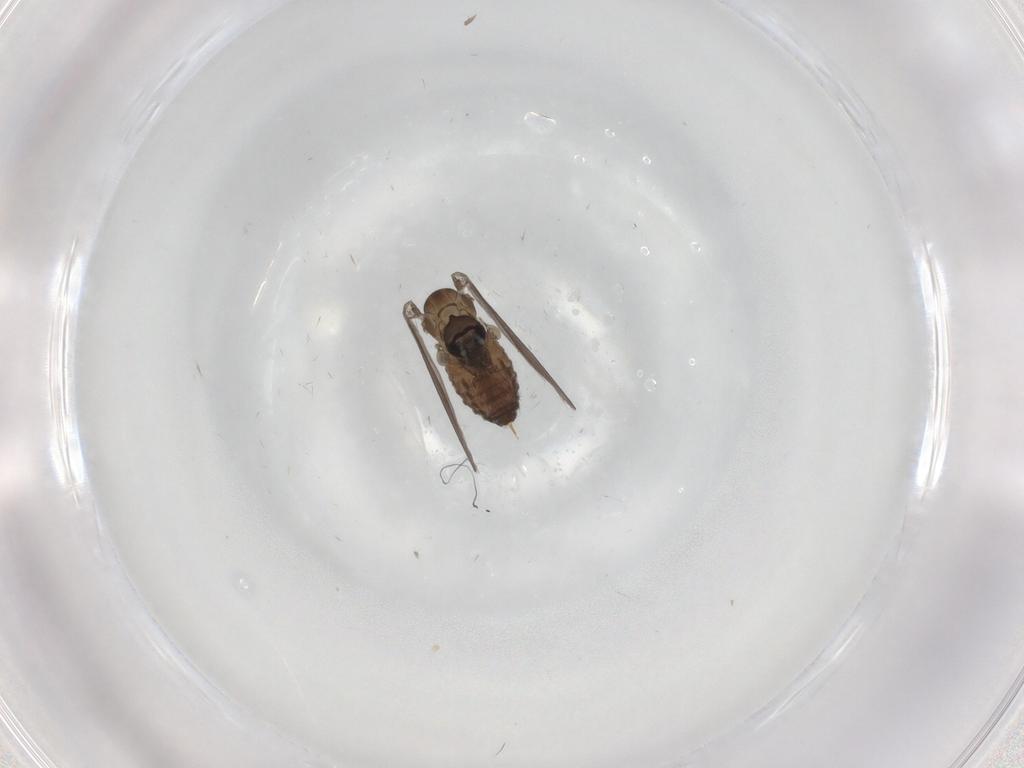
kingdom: Animalia
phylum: Arthropoda
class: Insecta
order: Diptera
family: Psychodidae
